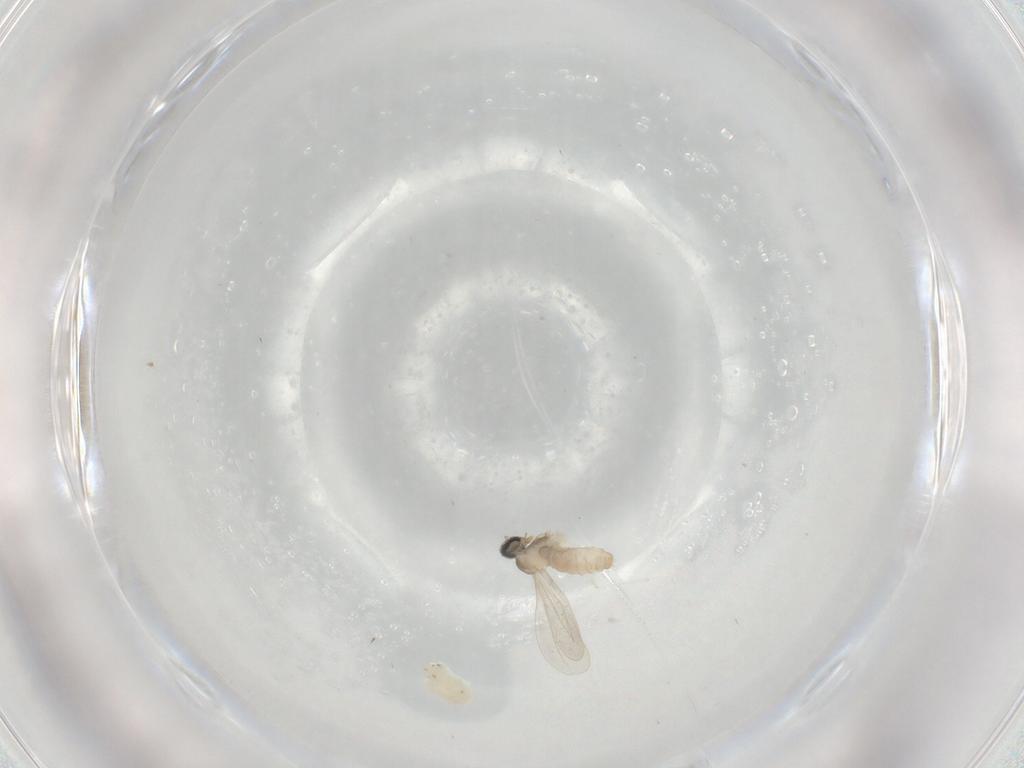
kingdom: Animalia
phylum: Arthropoda
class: Insecta
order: Diptera
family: Cecidomyiidae
